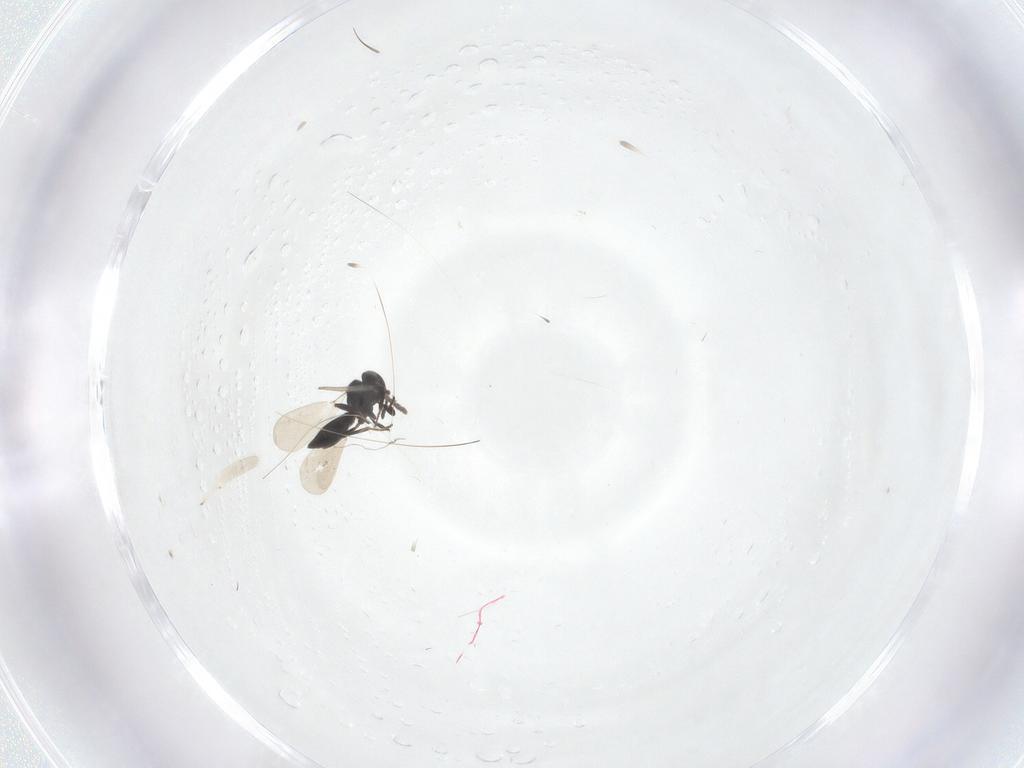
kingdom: Animalia
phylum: Arthropoda
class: Insecta
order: Hymenoptera
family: Platygastridae
